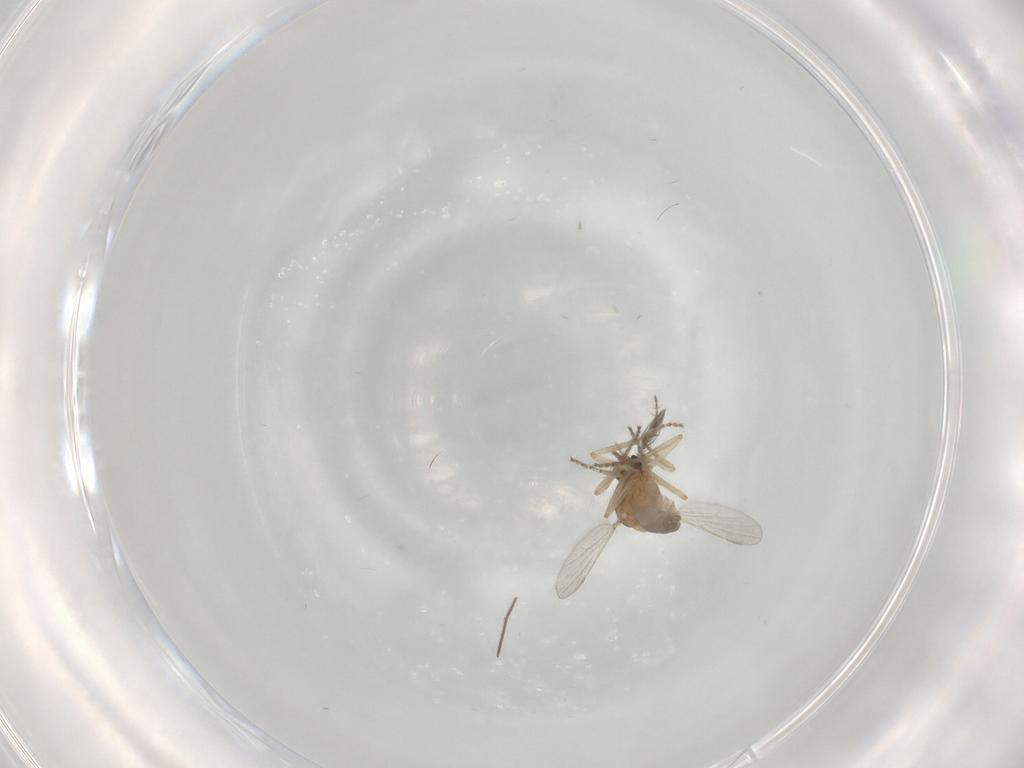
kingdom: Animalia
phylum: Arthropoda
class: Insecta
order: Diptera
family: Ceratopogonidae
